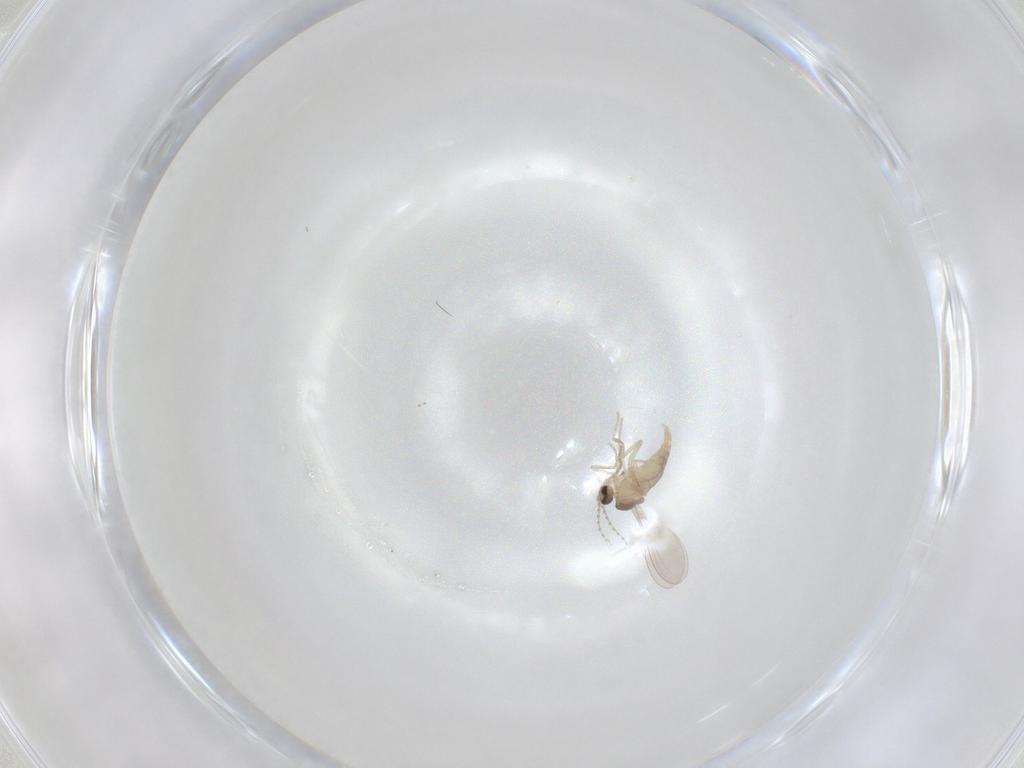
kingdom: Animalia
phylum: Arthropoda
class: Insecta
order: Diptera
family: Cecidomyiidae
